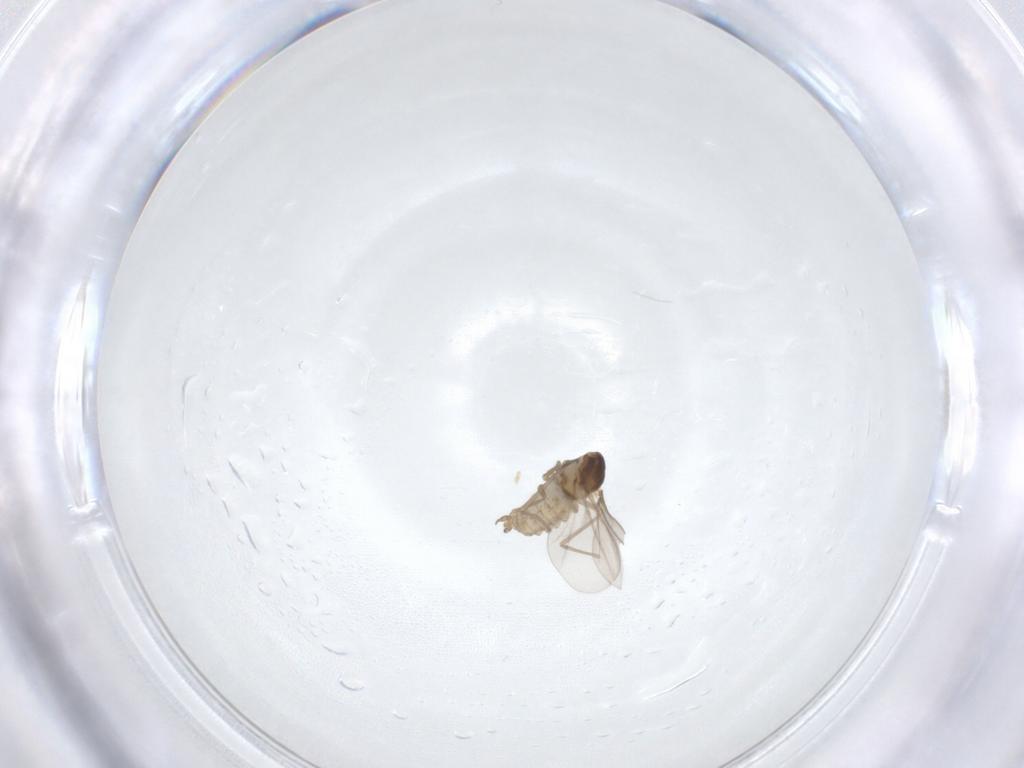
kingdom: Animalia
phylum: Arthropoda
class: Insecta
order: Diptera
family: Cecidomyiidae
